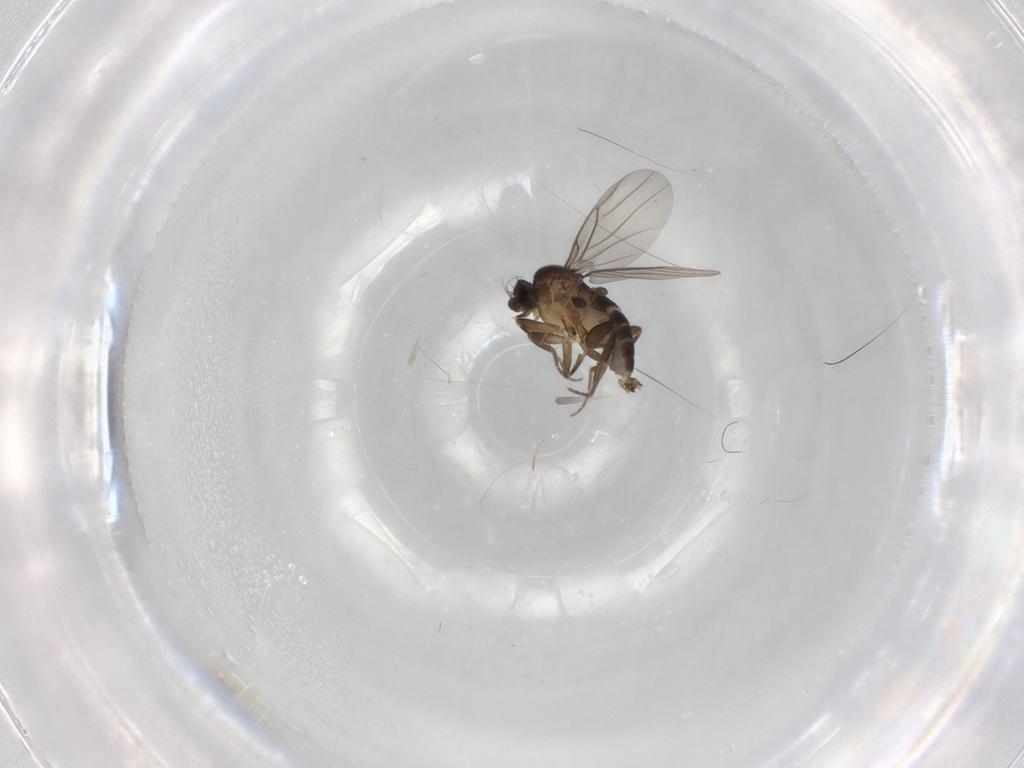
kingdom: Animalia
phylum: Arthropoda
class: Insecta
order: Diptera
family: Phoridae
